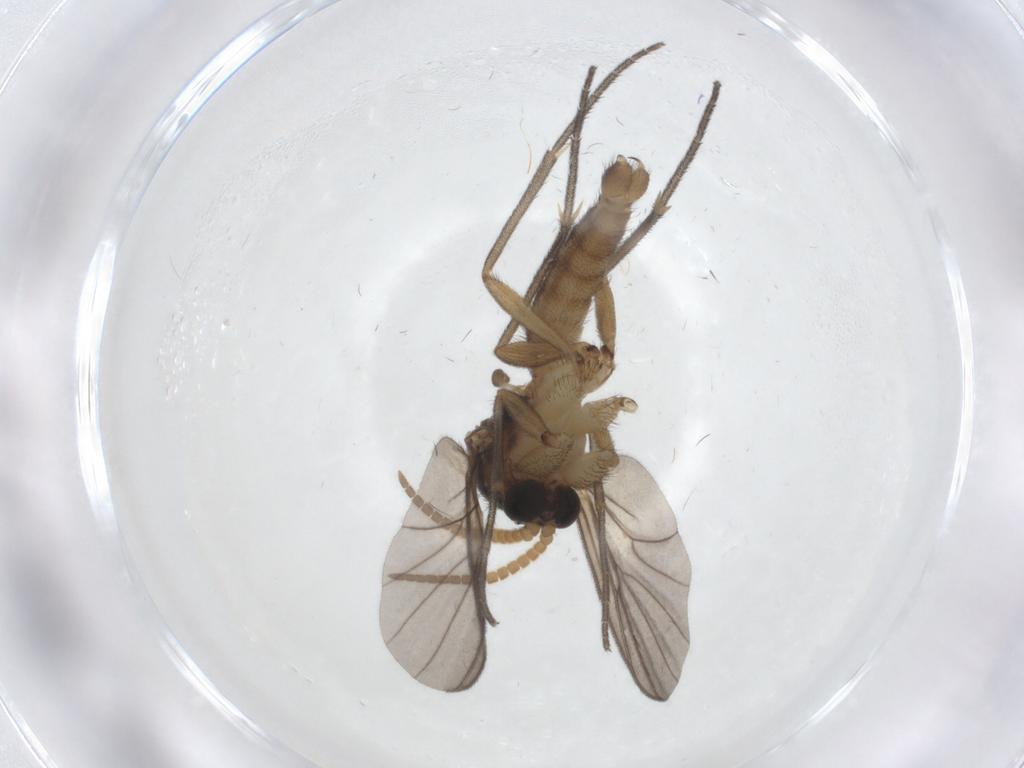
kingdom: Animalia
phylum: Arthropoda
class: Insecta
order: Diptera
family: Mycetophilidae
